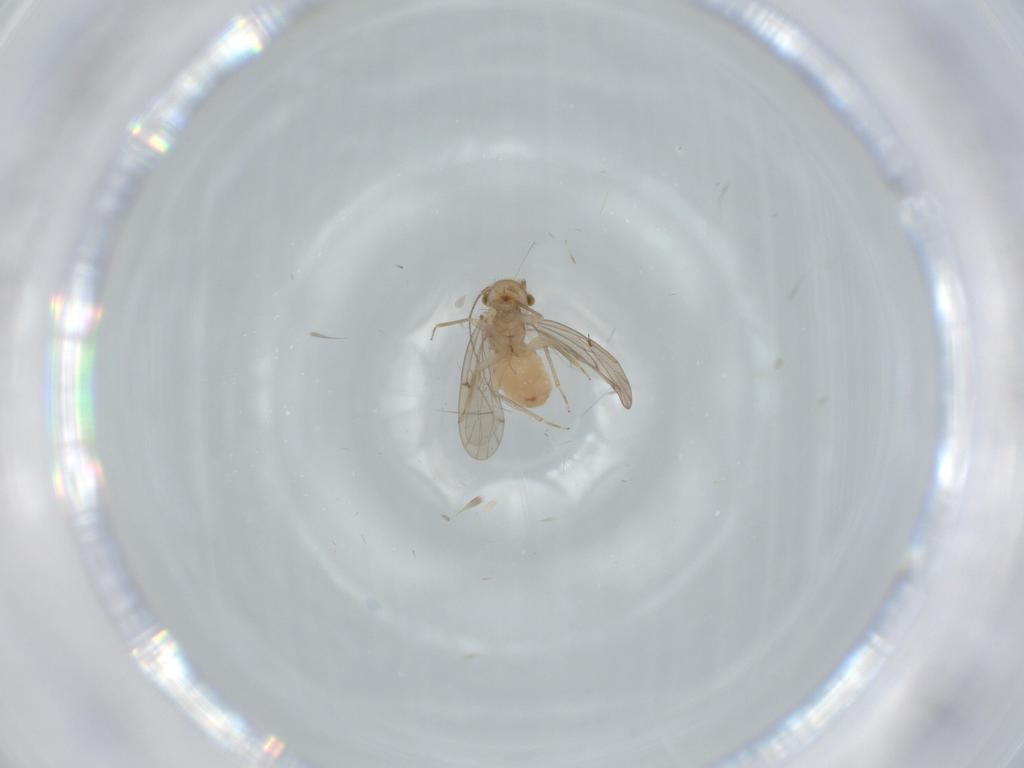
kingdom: Animalia
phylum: Arthropoda
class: Insecta
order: Psocodea
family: Ectopsocidae
